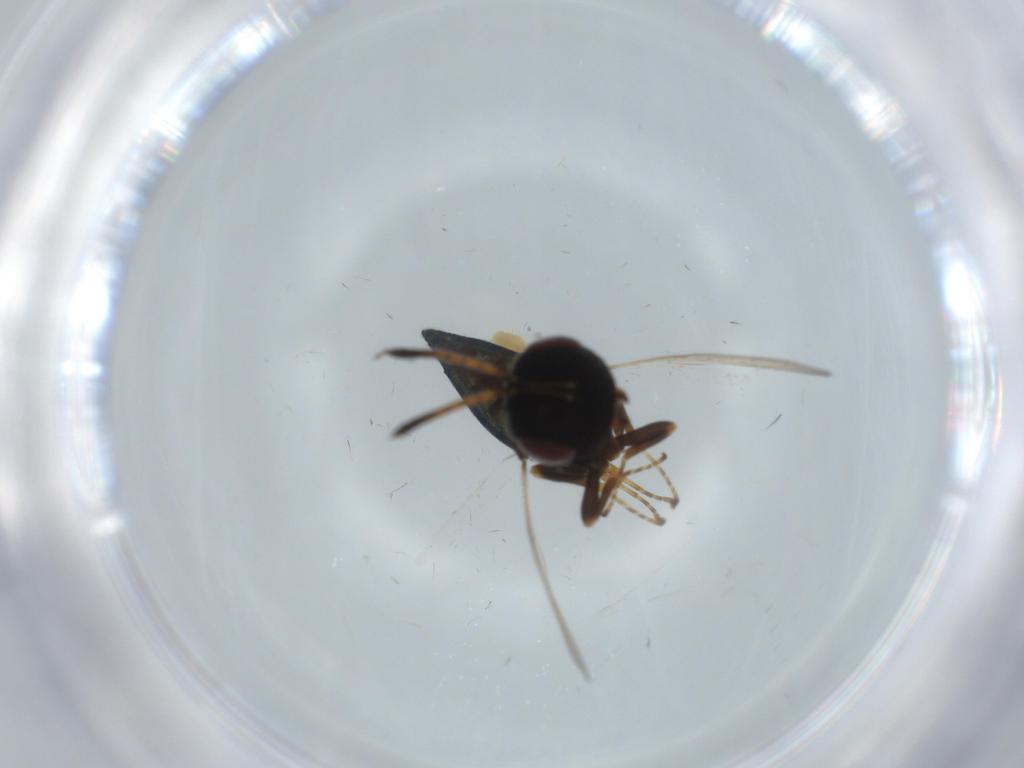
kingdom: Animalia
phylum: Arthropoda
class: Insecta
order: Hymenoptera
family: Pteromalidae
